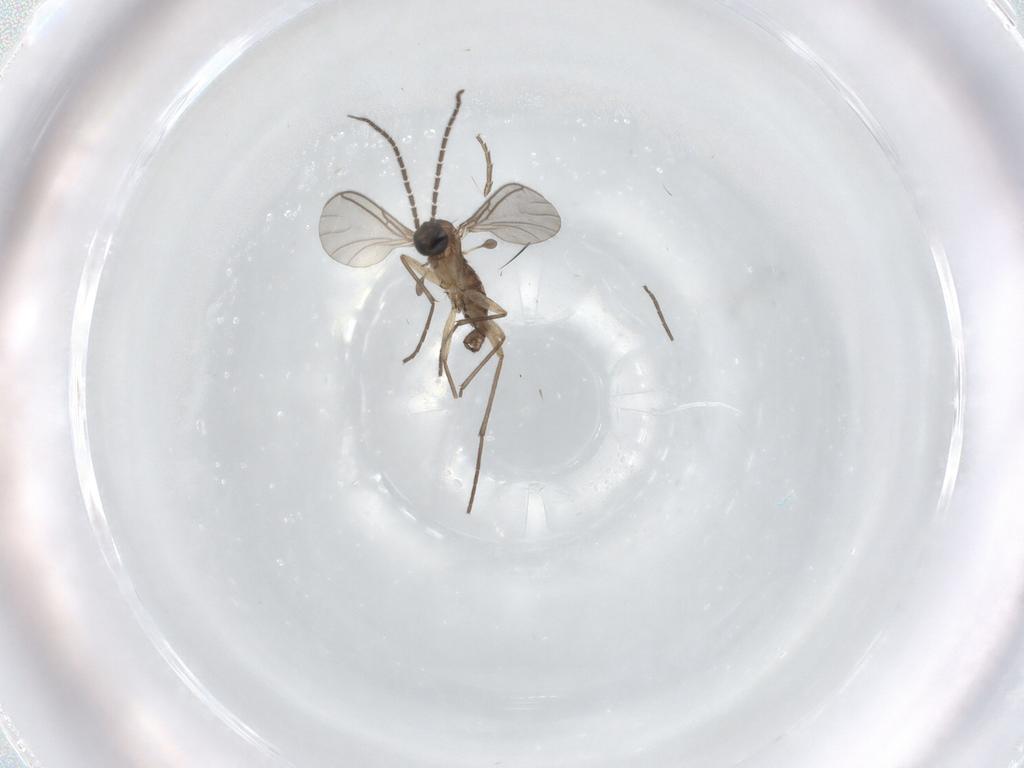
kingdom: Animalia
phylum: Arthropoda
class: Insecta
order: Diptera
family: Sciaridae
